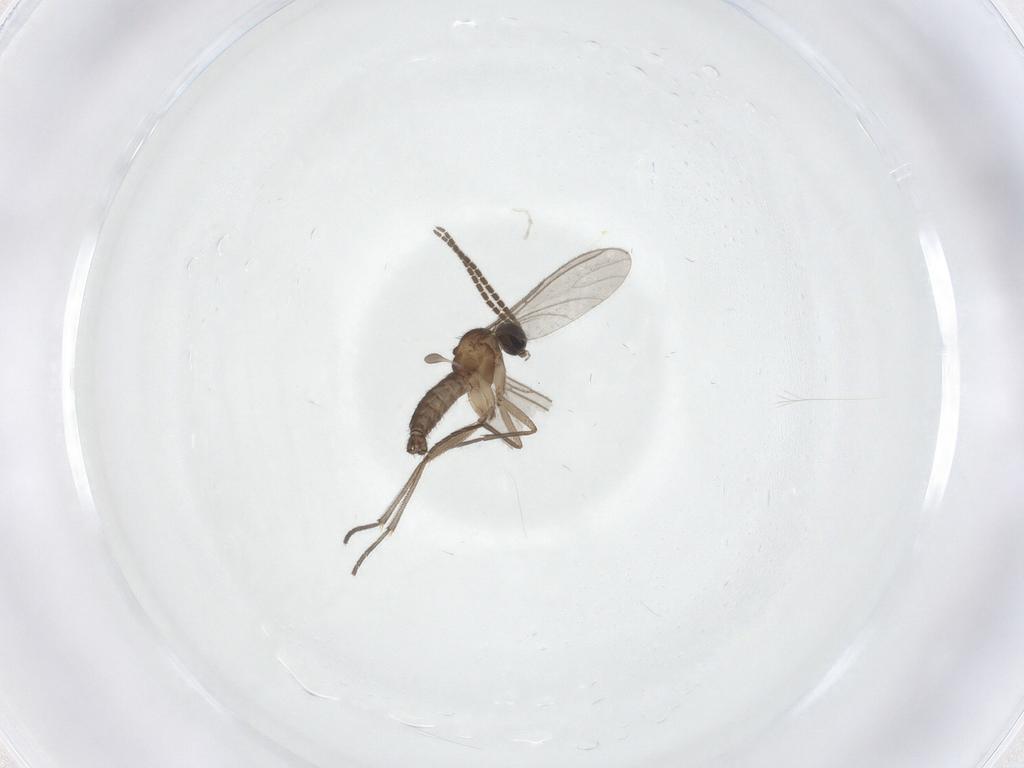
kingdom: Animalia
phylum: Arthropoda
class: Insecta
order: Diptera
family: Sciaridae
